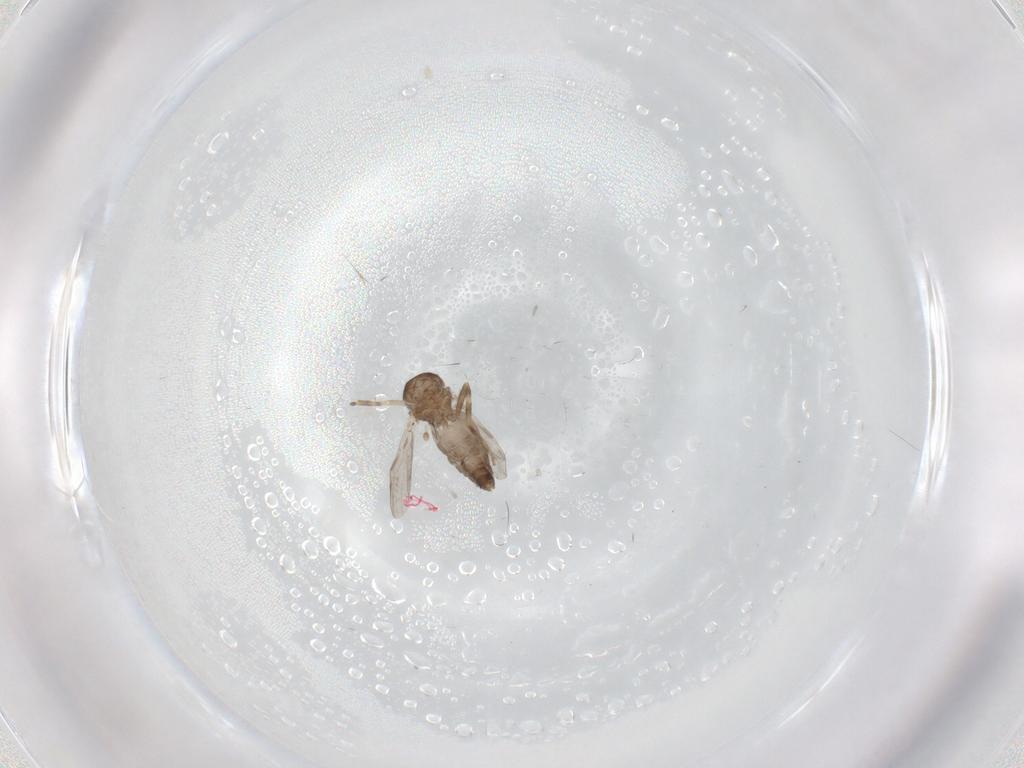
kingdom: Animalia
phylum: Arthropoda
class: Insecta
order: Diptera
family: Ceratopogonidae
